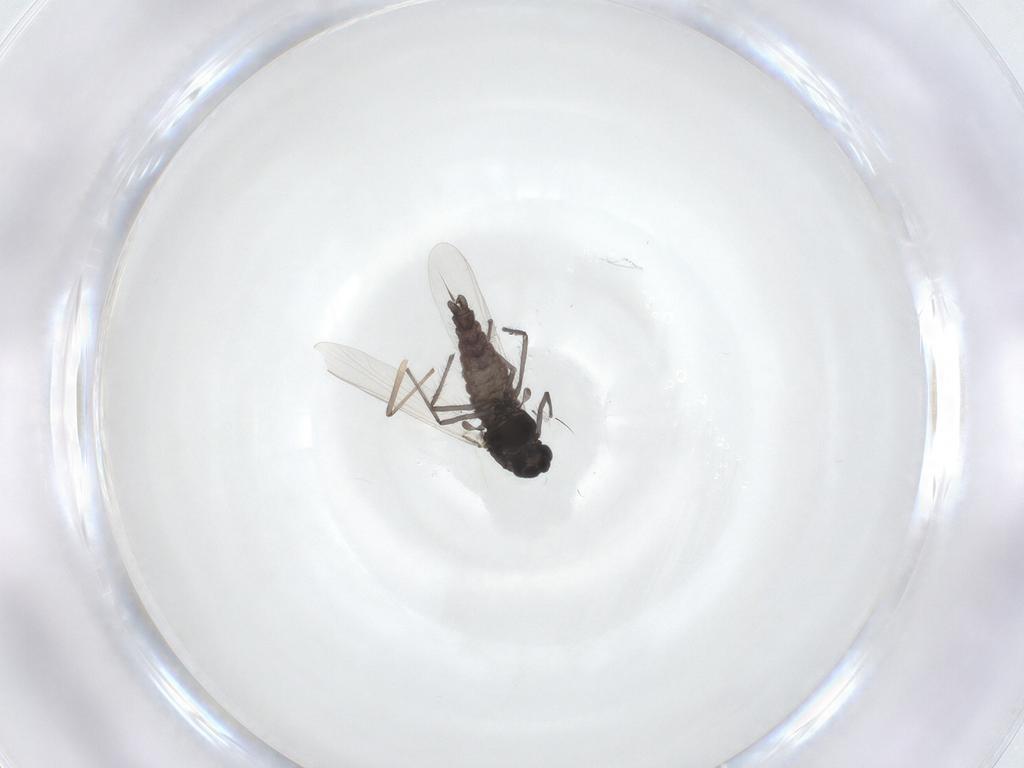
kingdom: Animalia
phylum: Arthropoda
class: Insecta
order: Diptera
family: Chironomidae
